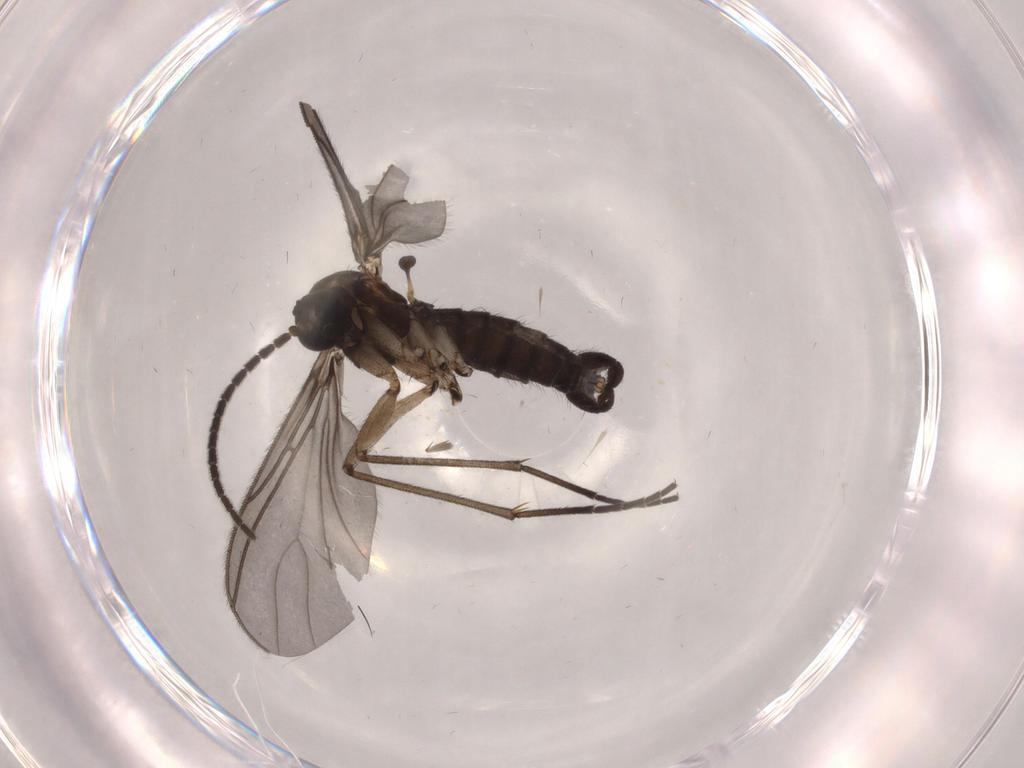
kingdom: Animalia
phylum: Arthropoda
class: Insecta
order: Diptera
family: Sciaridae
